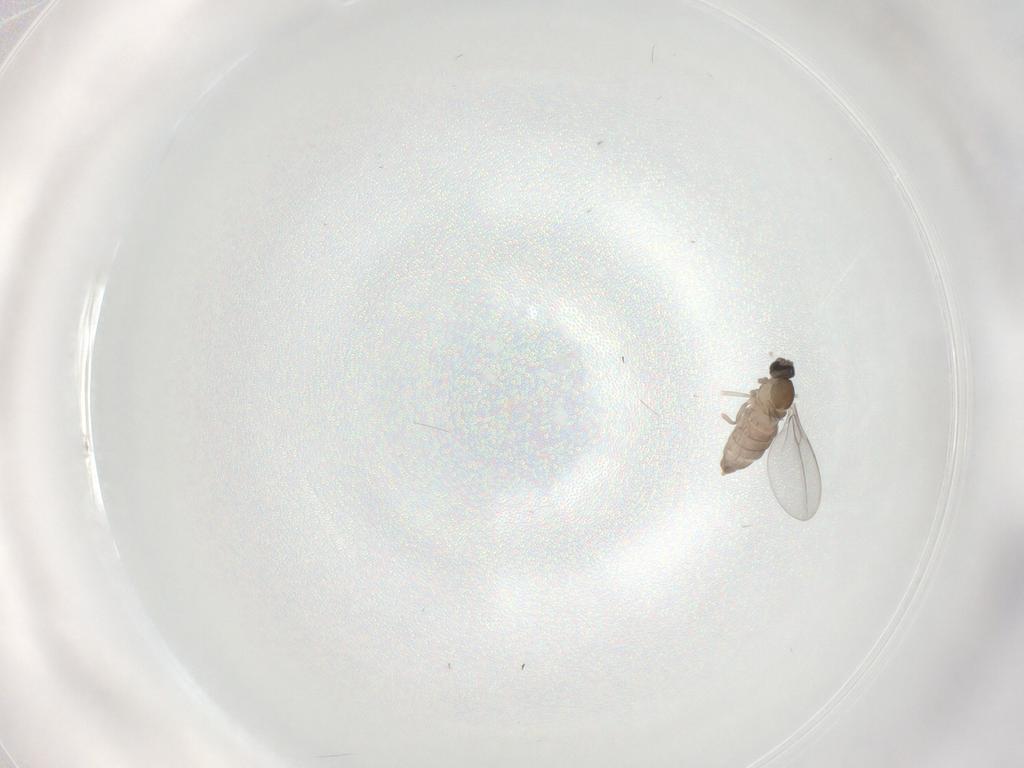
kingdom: Animalia
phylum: Arthropoda
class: Insecta
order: Diptera
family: Cecidomyiidae
